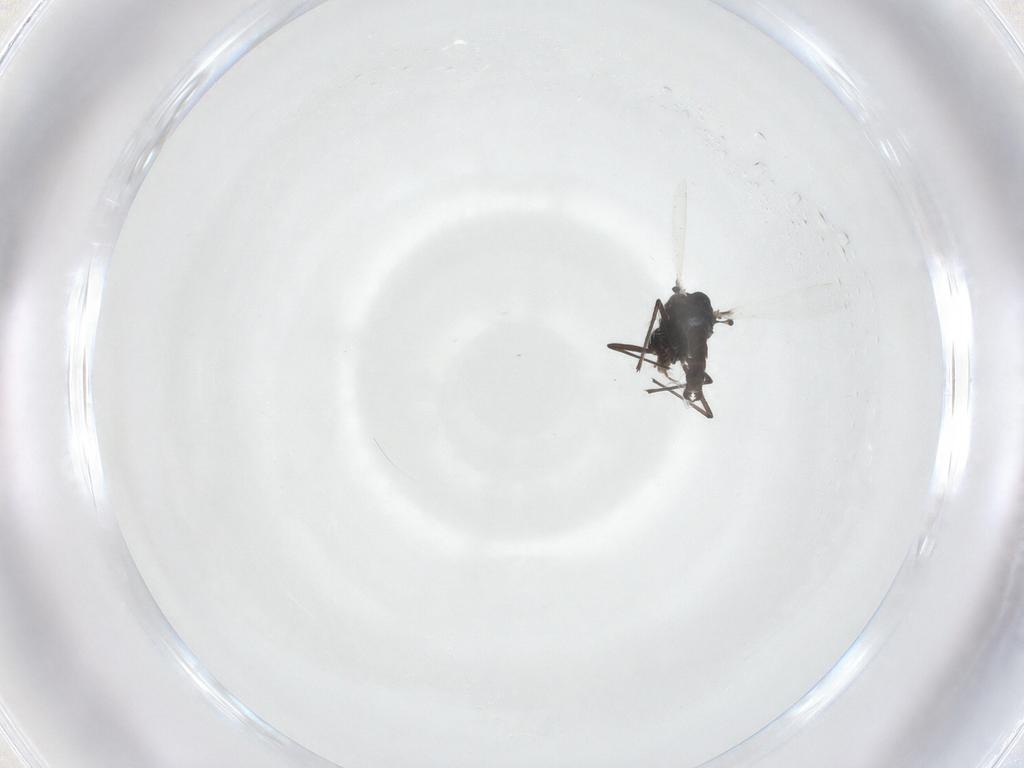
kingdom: Animalia
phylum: Arthropoda
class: Insecta
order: Diptera
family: Chironomidae
